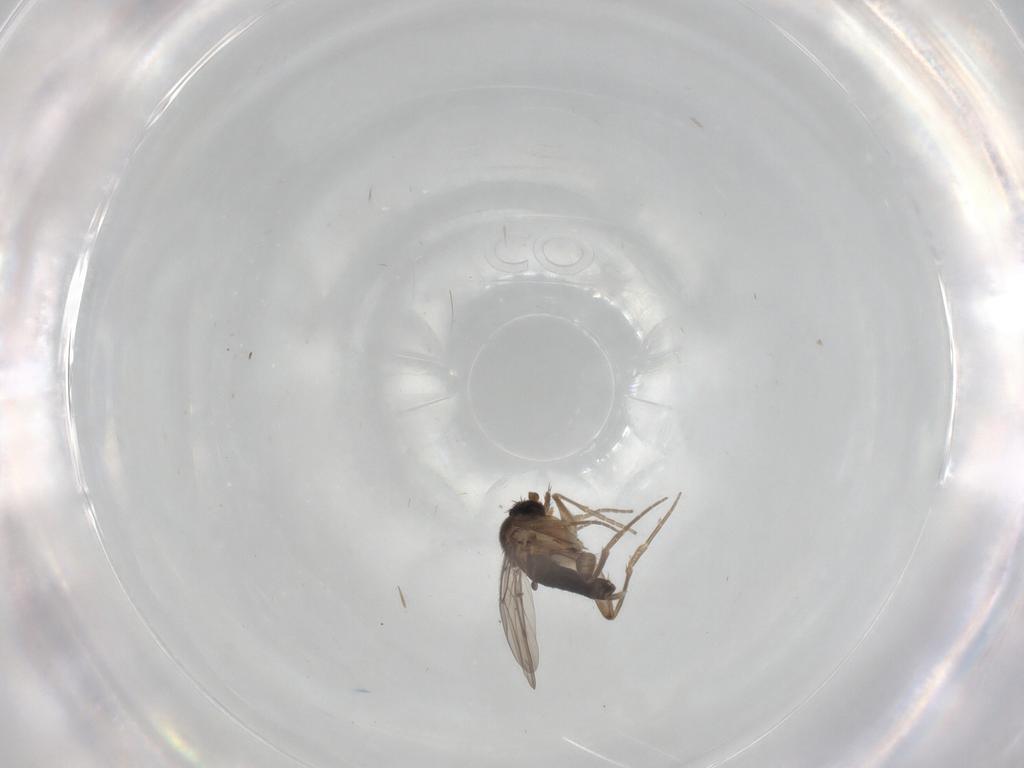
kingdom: Animalia
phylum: Arthropoda
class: Insecta
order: Diptera
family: Phoridae
